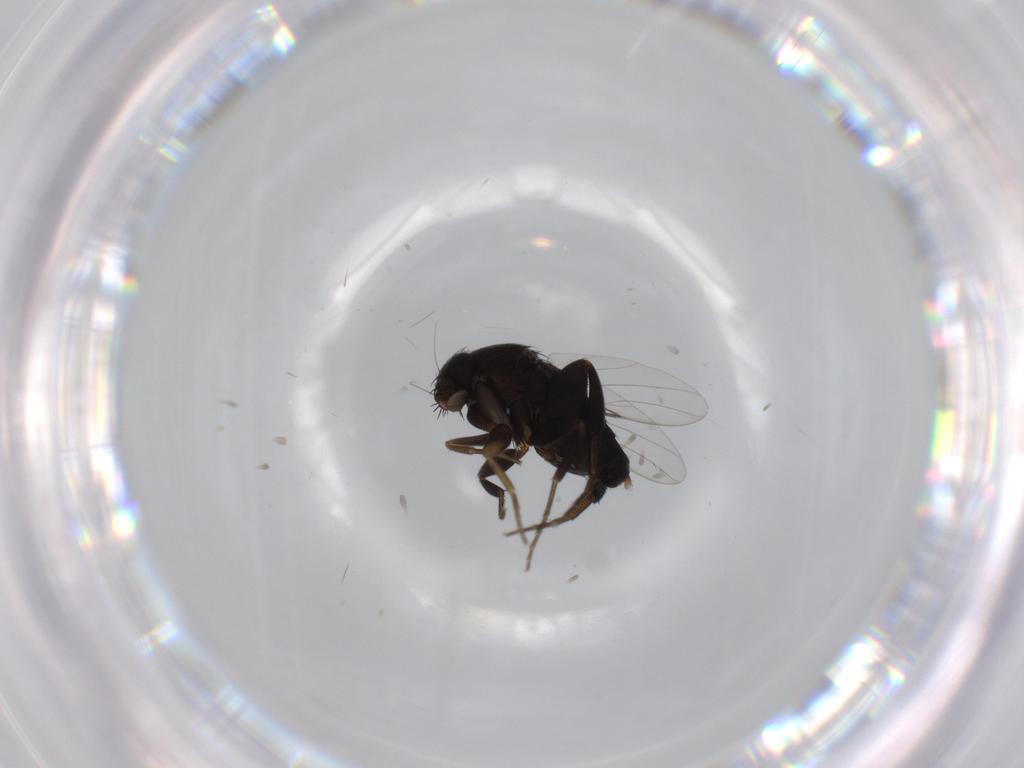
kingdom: Animalia
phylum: Arthropoda
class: Insecta
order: Diptera
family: Phoridae
